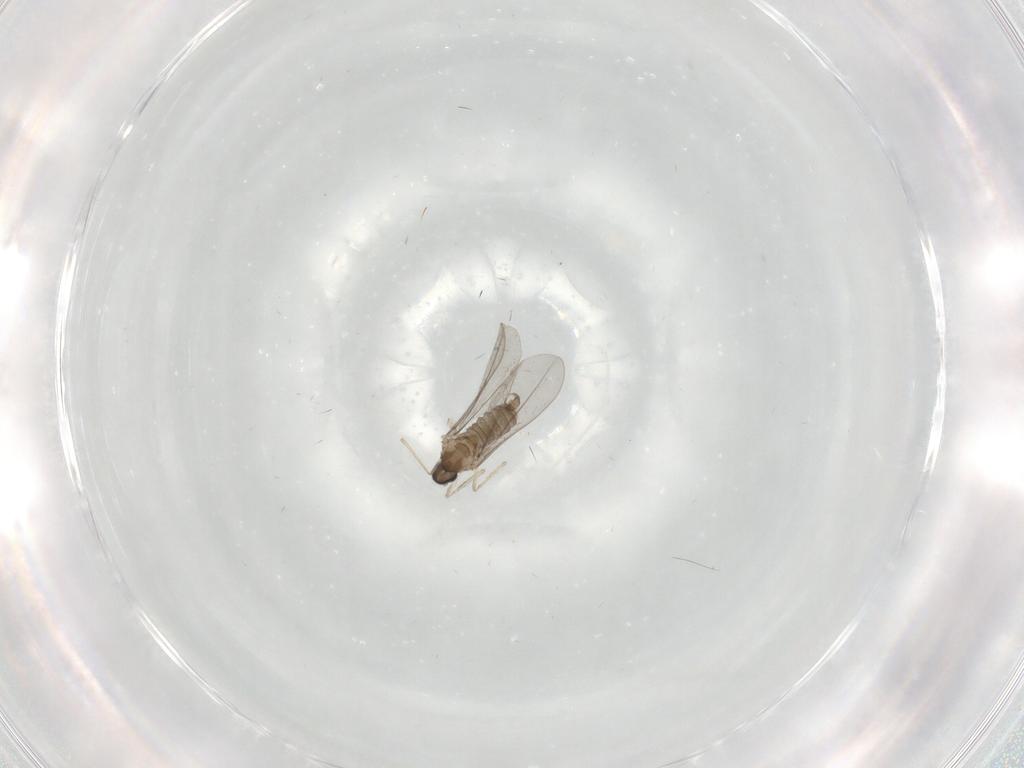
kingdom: Animalia
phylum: Arthropoda
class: Insecta
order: Diptera
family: Cecidomyiidae
